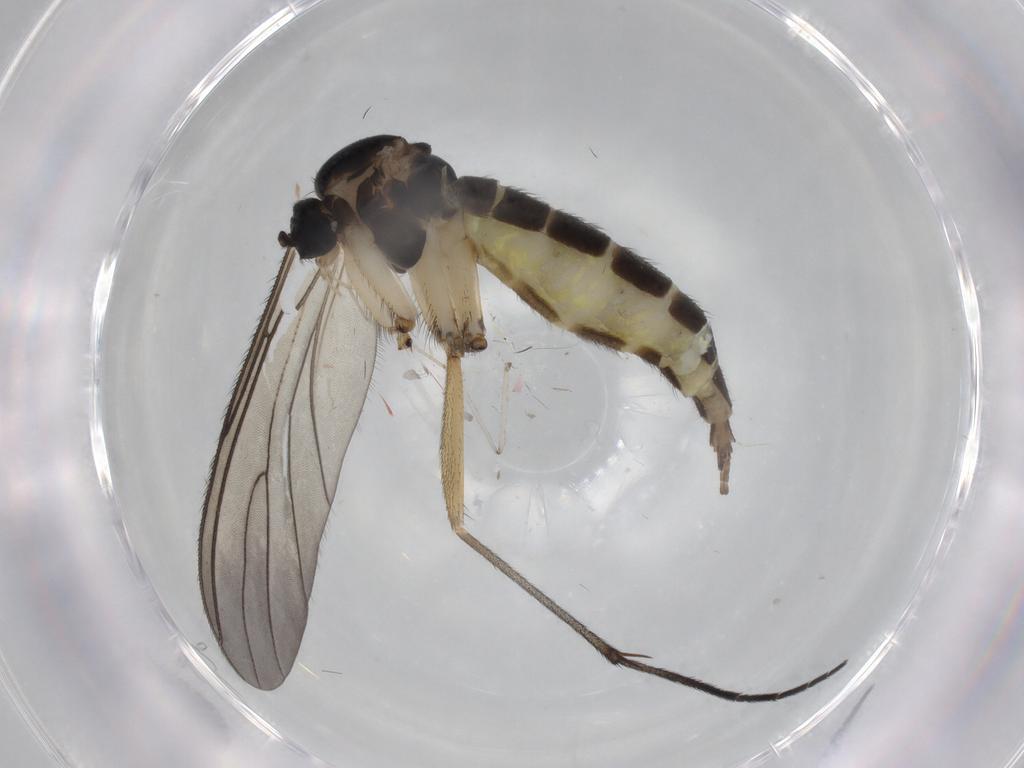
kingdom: Animalia
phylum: Arthropoda
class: Insecta
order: Diptera
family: Sciaridae
